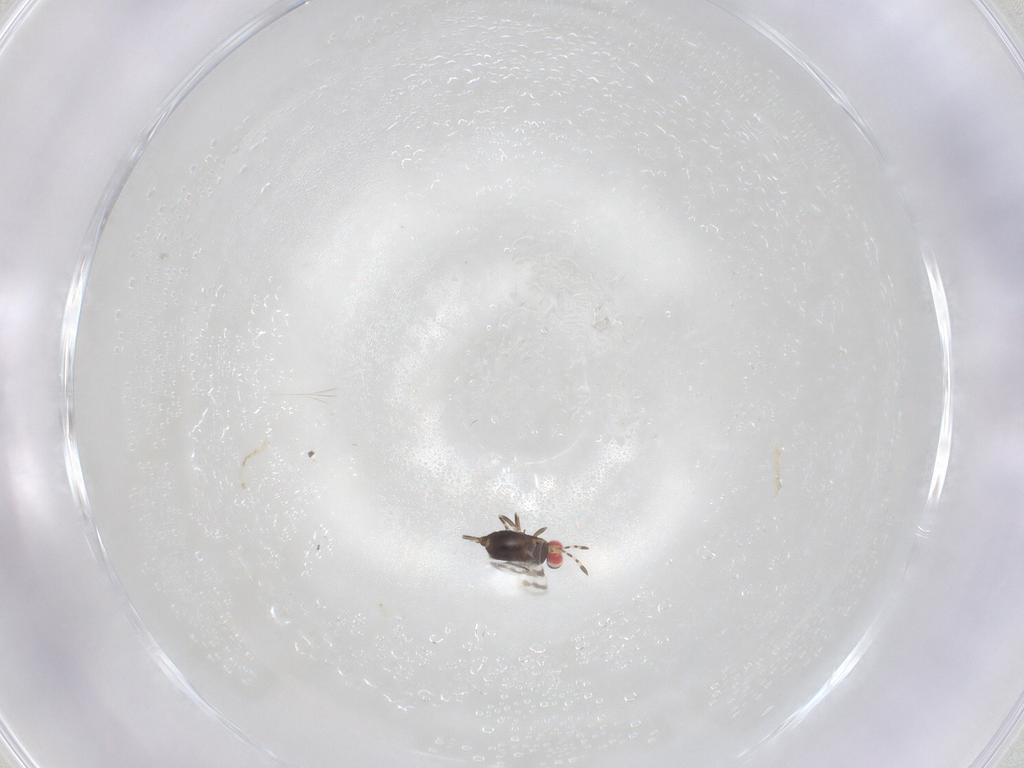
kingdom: Animalia
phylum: Arthropoda
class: Insecta
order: Hymenoptera
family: Azotidae
